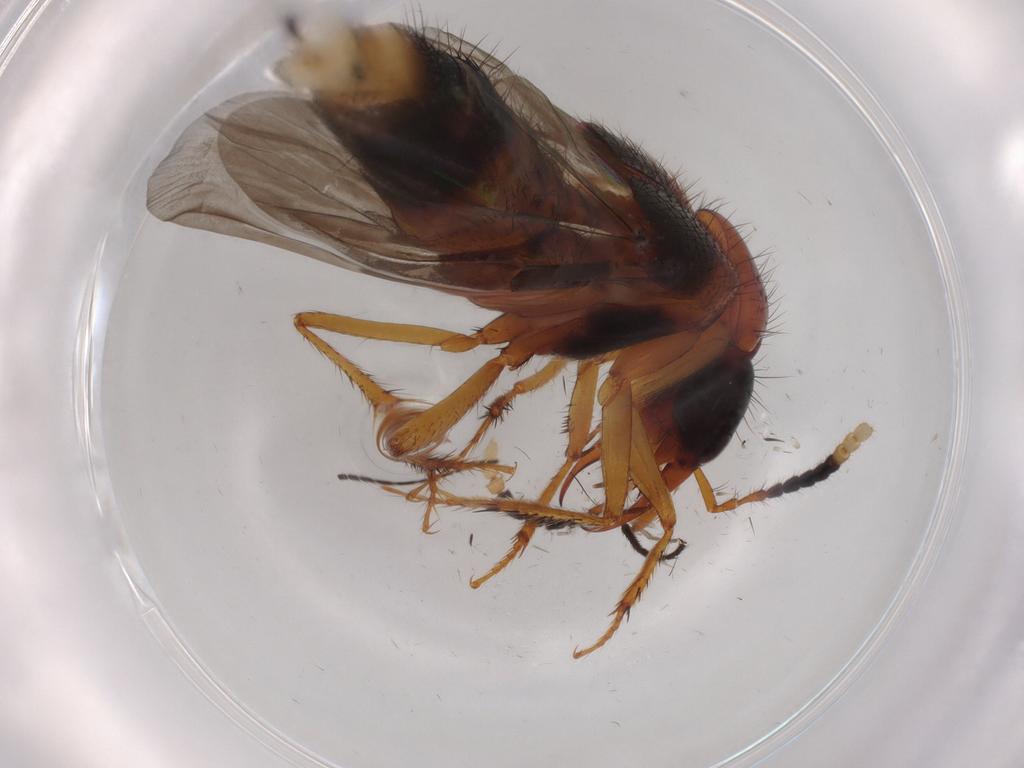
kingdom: Animalia
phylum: Arthropoda
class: Insecta
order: Coleoptera
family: Staphylinidae
